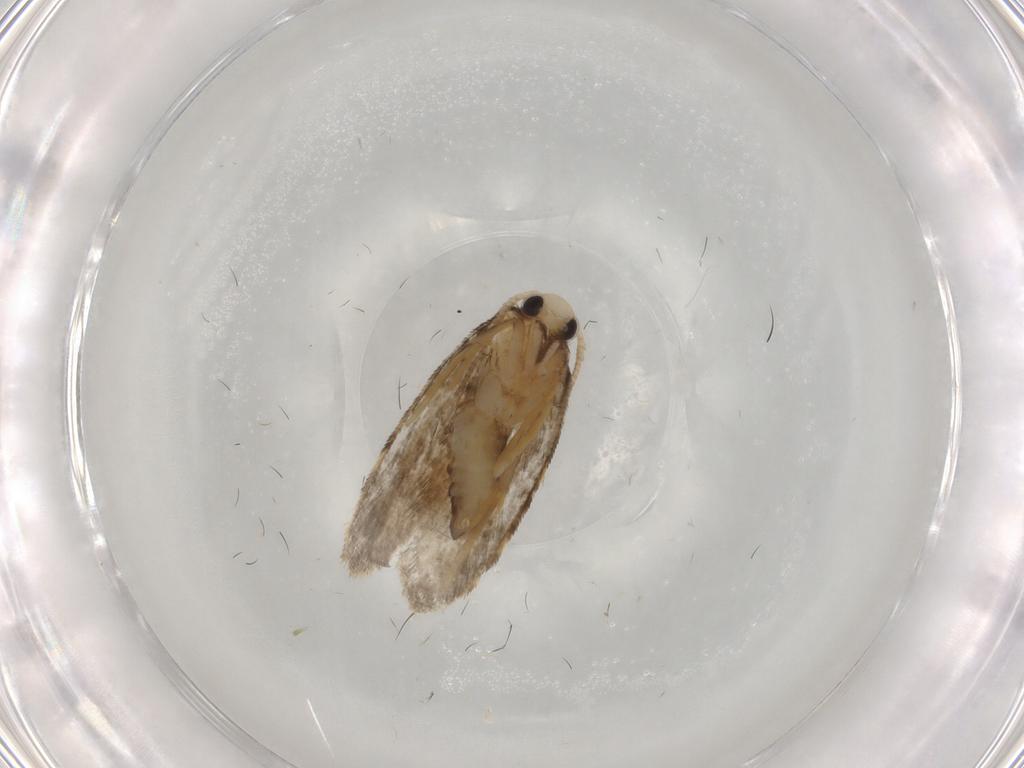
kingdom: Animalia
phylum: Arthropoda
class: Insecta
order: Lepidoptera
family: Psychidae
